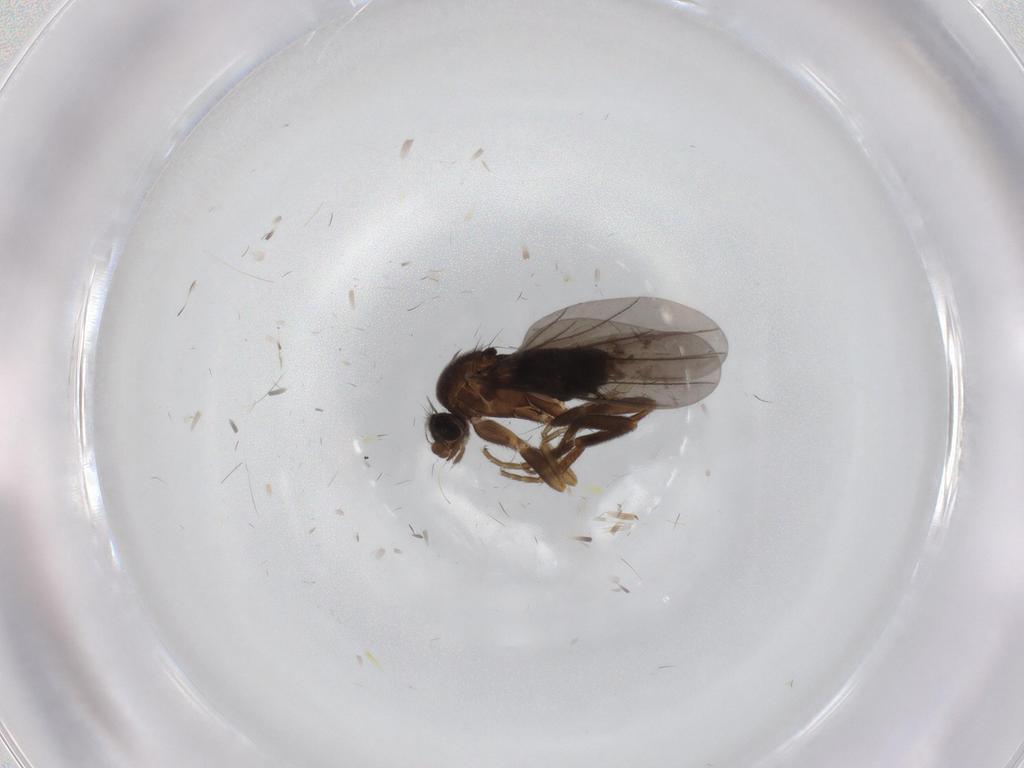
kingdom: Animalia
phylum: Arthropoda
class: Insecta
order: Diptera
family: Phoridae
